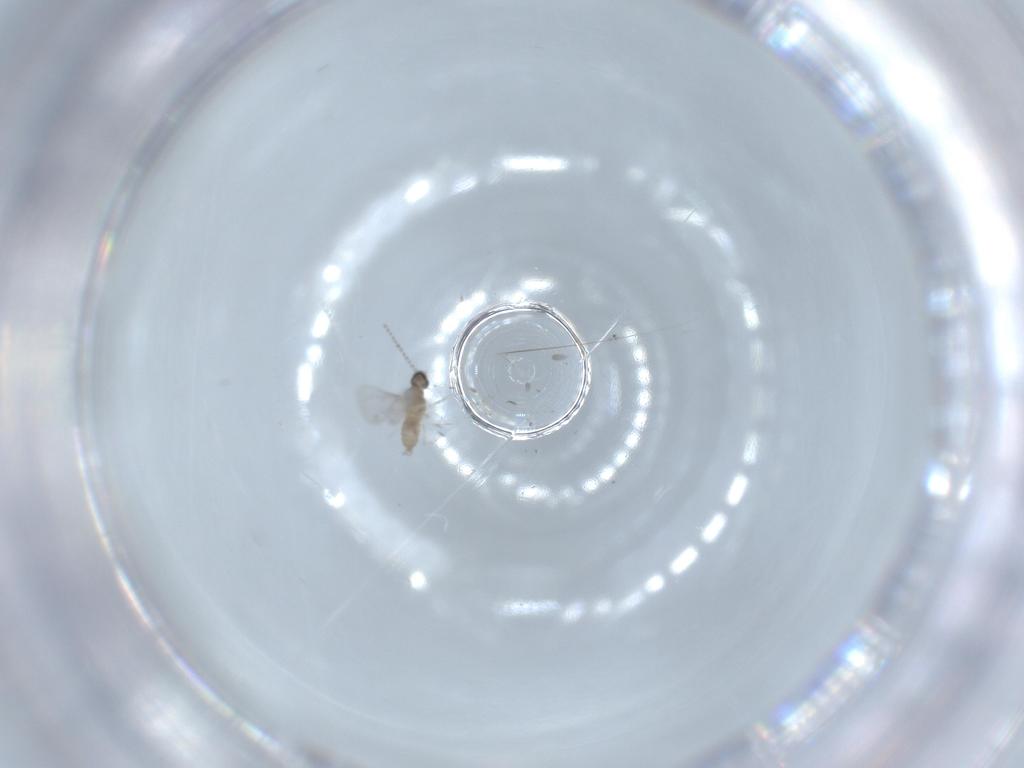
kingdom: Animalia
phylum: Arthropoda
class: Insecta
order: Diptera
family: Cecidomyiidae
